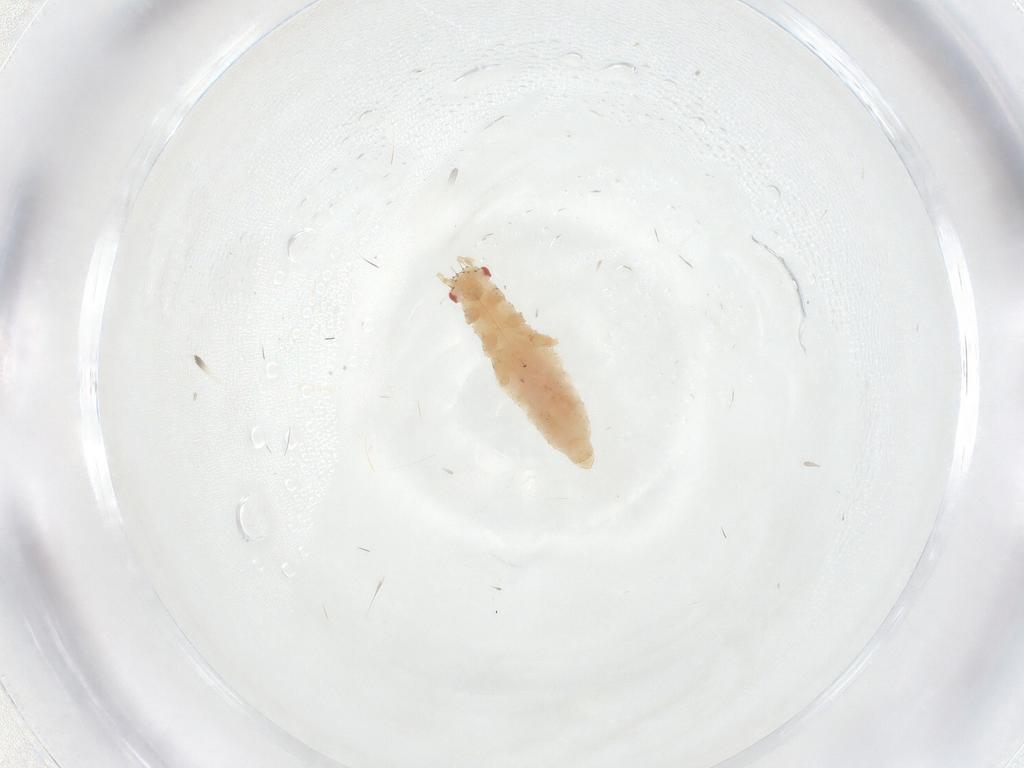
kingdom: Animalia
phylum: Arthropoda
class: Insecta
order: Hemiptera
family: Aphididae
